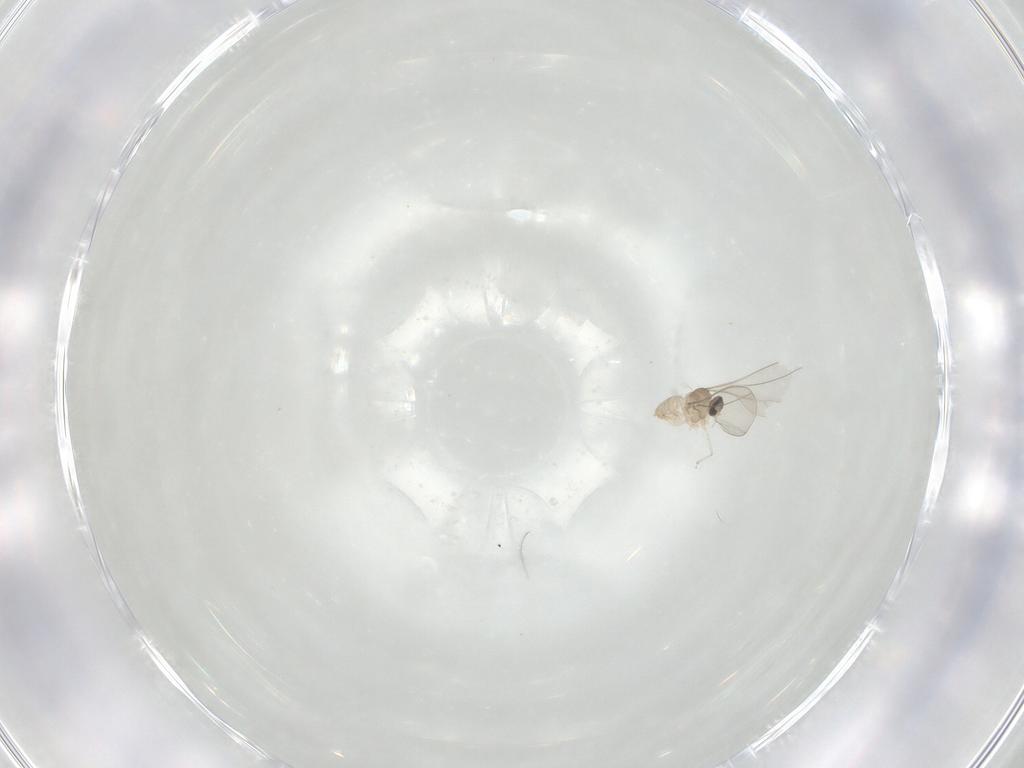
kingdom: Animalia
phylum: Arthropoda
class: Insecta
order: Diptera
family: Cecidomyiidae
